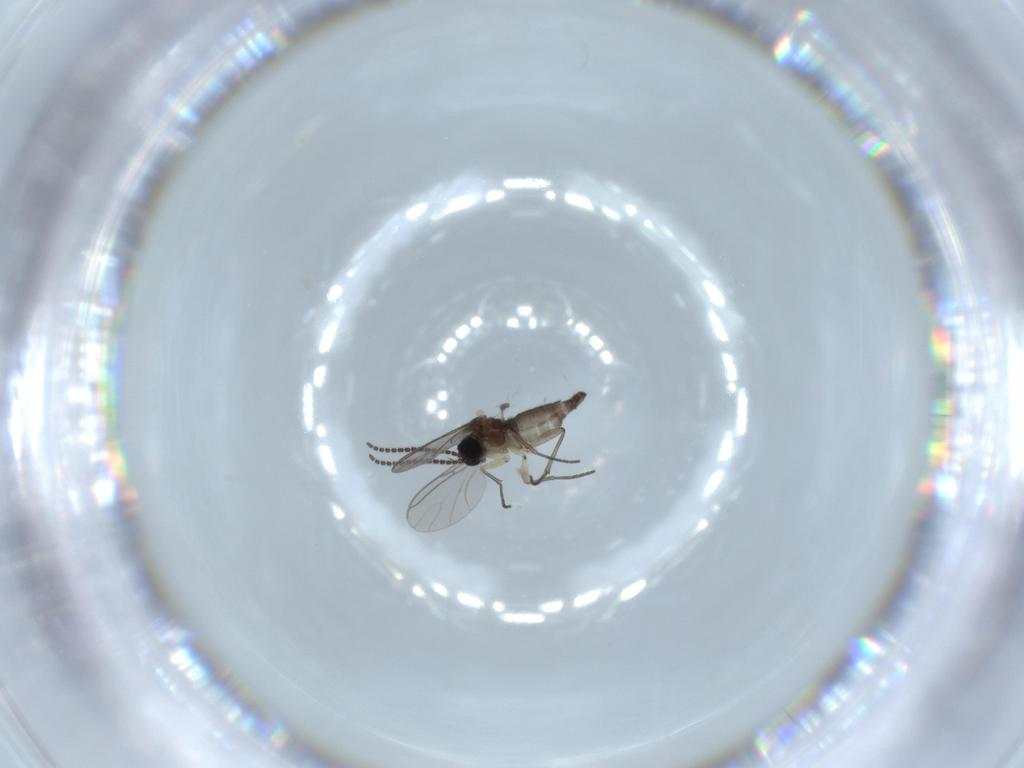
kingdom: Animalia
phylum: Arthropoda
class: Insecta
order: Diptera
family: Sciaridae
